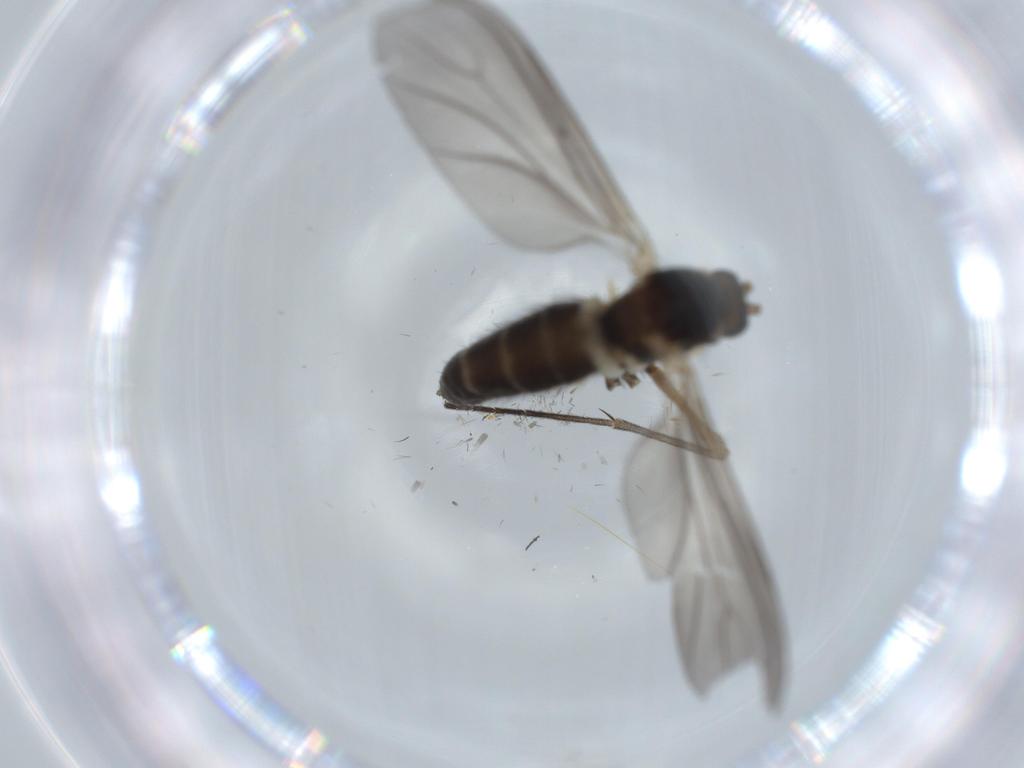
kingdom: Animalia
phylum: Arthropoda
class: Insecta
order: Diptera
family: Sciaridae
